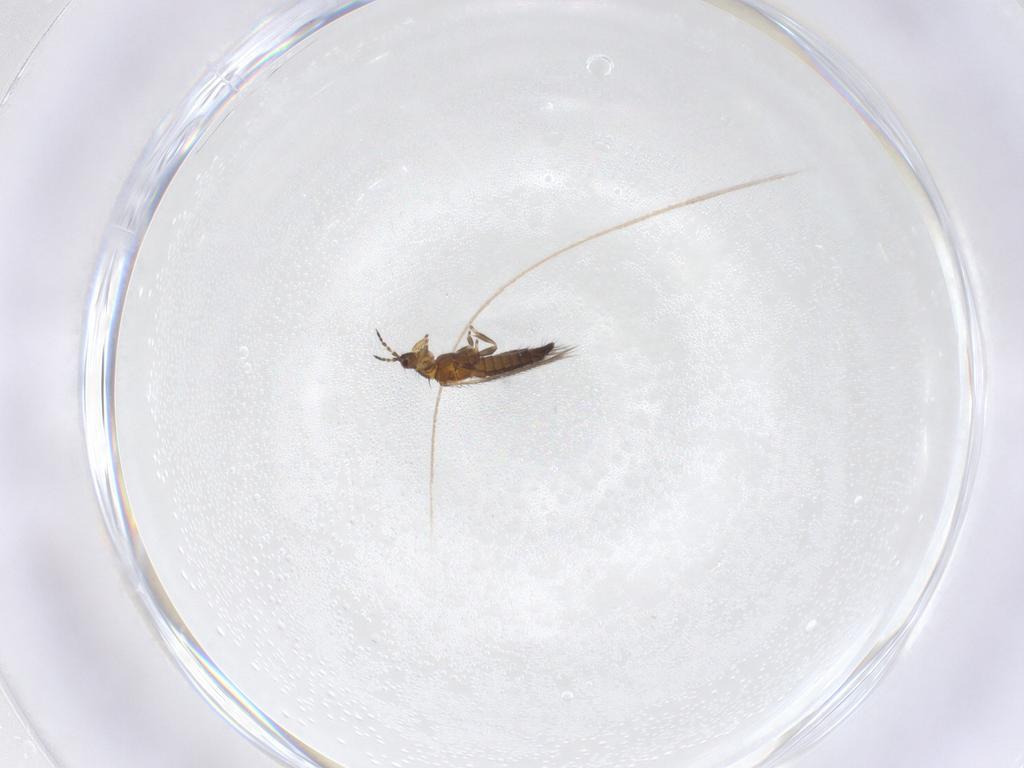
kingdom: Animalia
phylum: Arthropoda
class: Insecta
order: Thysanoptera
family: Thripidae
